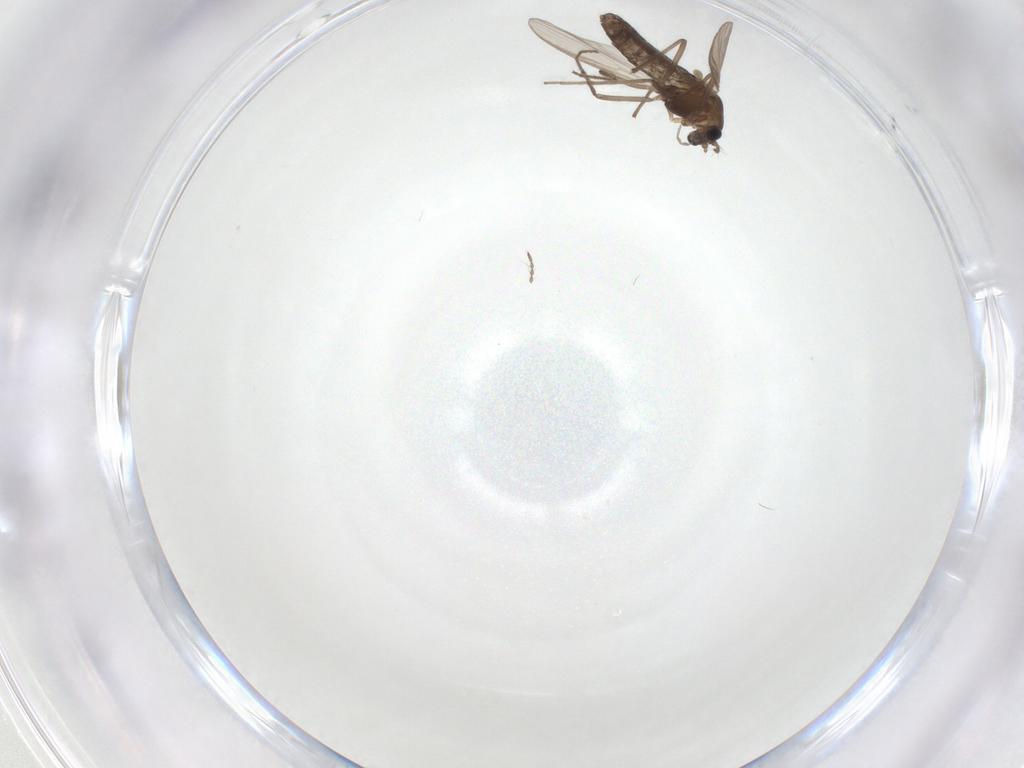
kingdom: Animalia
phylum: Arthropoda
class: Insecta
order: Diptera
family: Chironomidae
